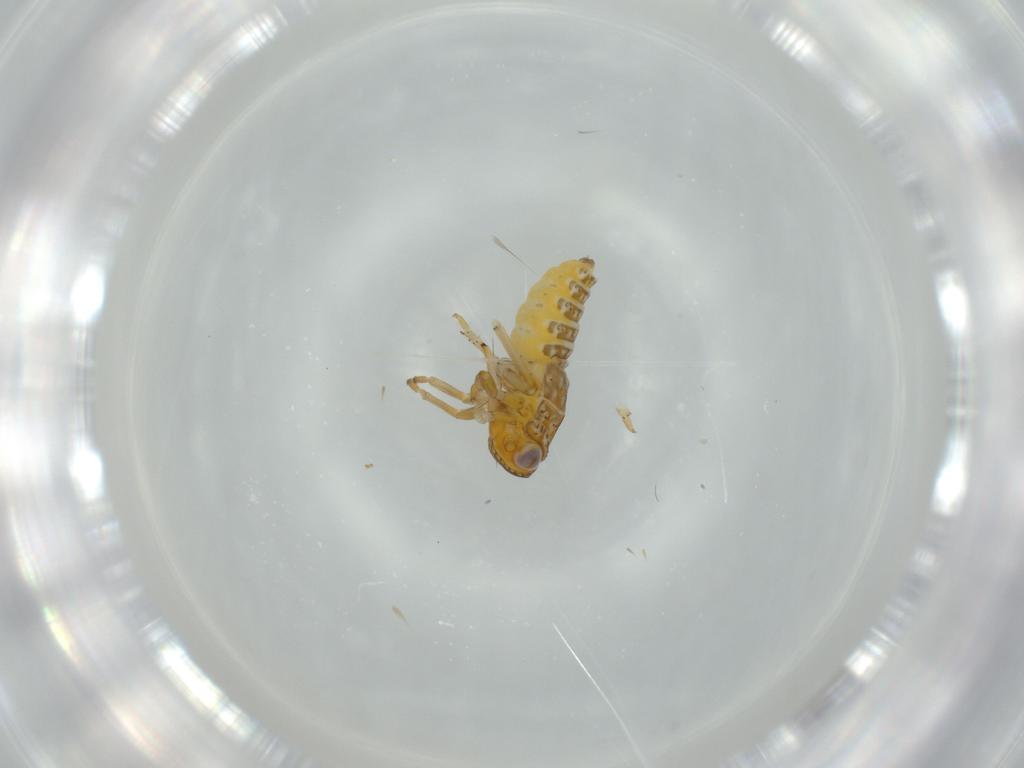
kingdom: Animalia
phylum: Arthropoda
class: Insecta
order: Hemiptera
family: Issidae
